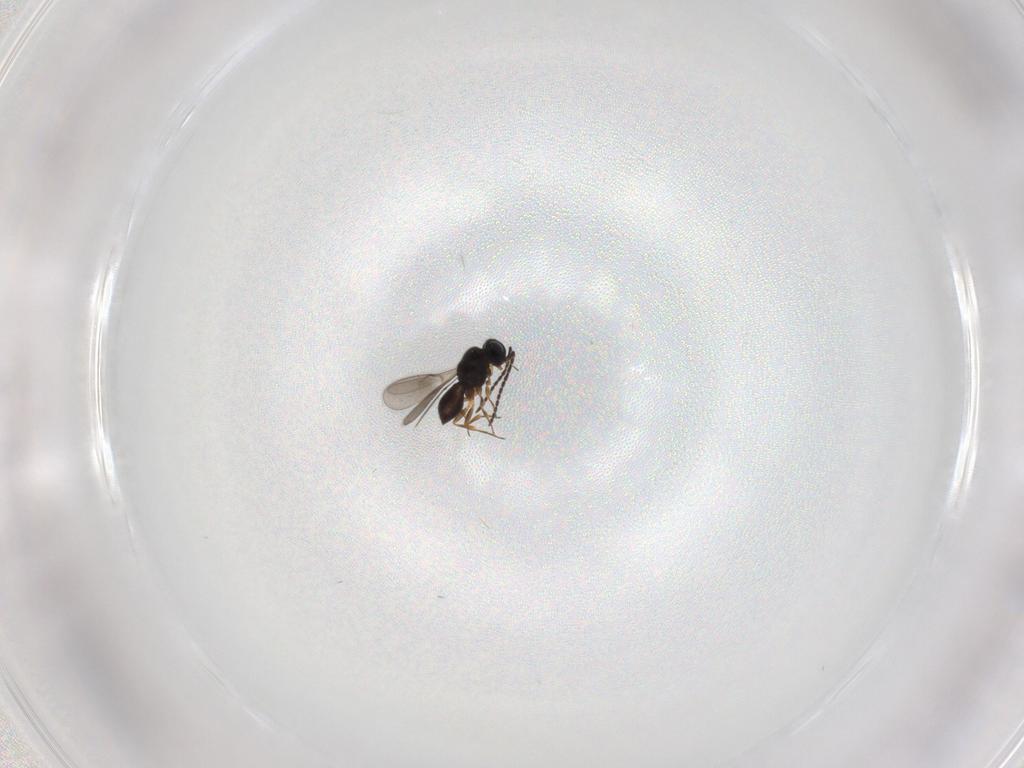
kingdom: Animalia
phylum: Arthropoda
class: Insecta
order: Hymenoptera
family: Scelionidae
